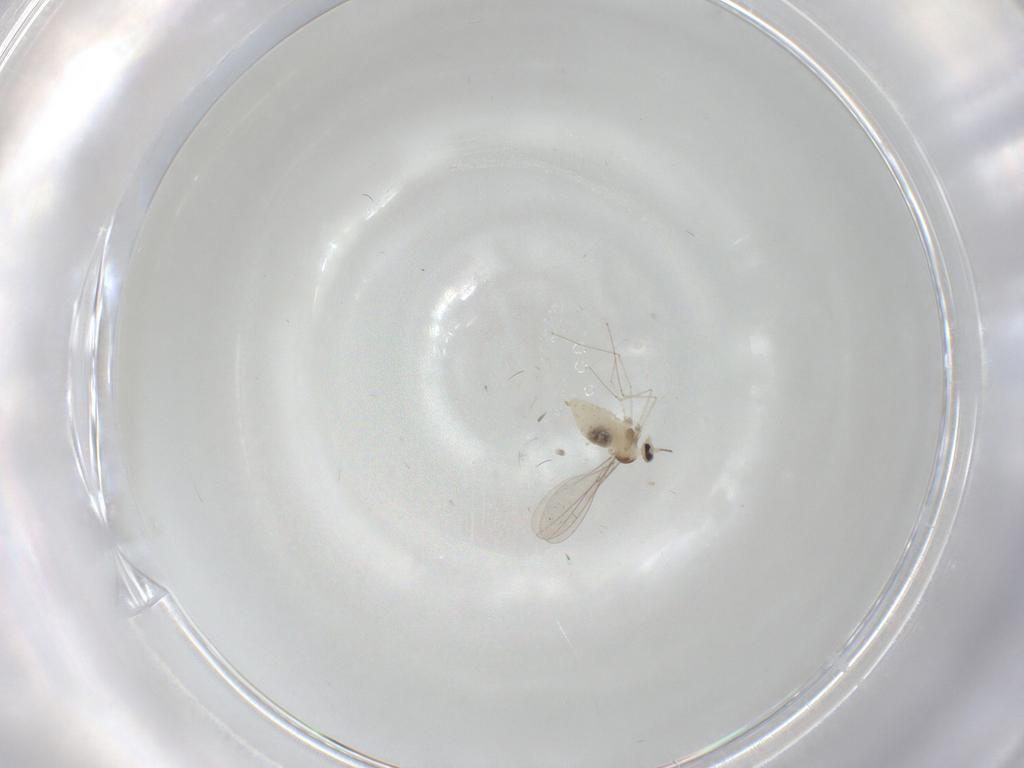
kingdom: Animalia
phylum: Arthropoda
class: Insecta
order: Diptera
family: Cecidomyiidae
